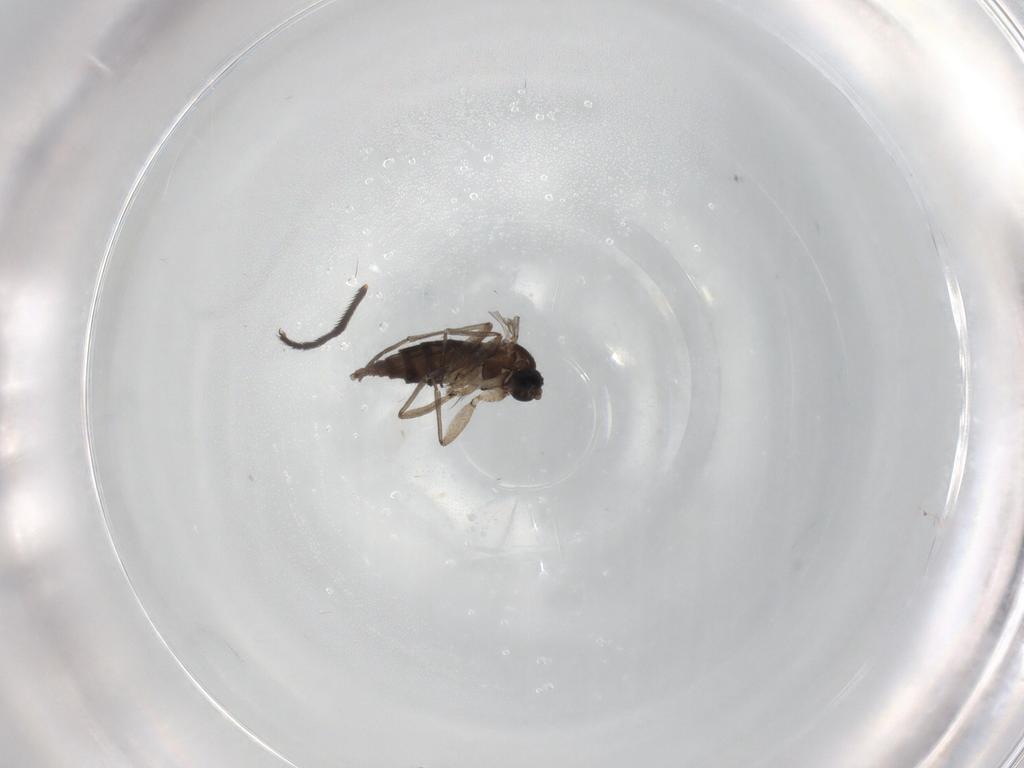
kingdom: Animalia
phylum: Arthropoda
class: Insecta
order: Diptera
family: Sciaridae
